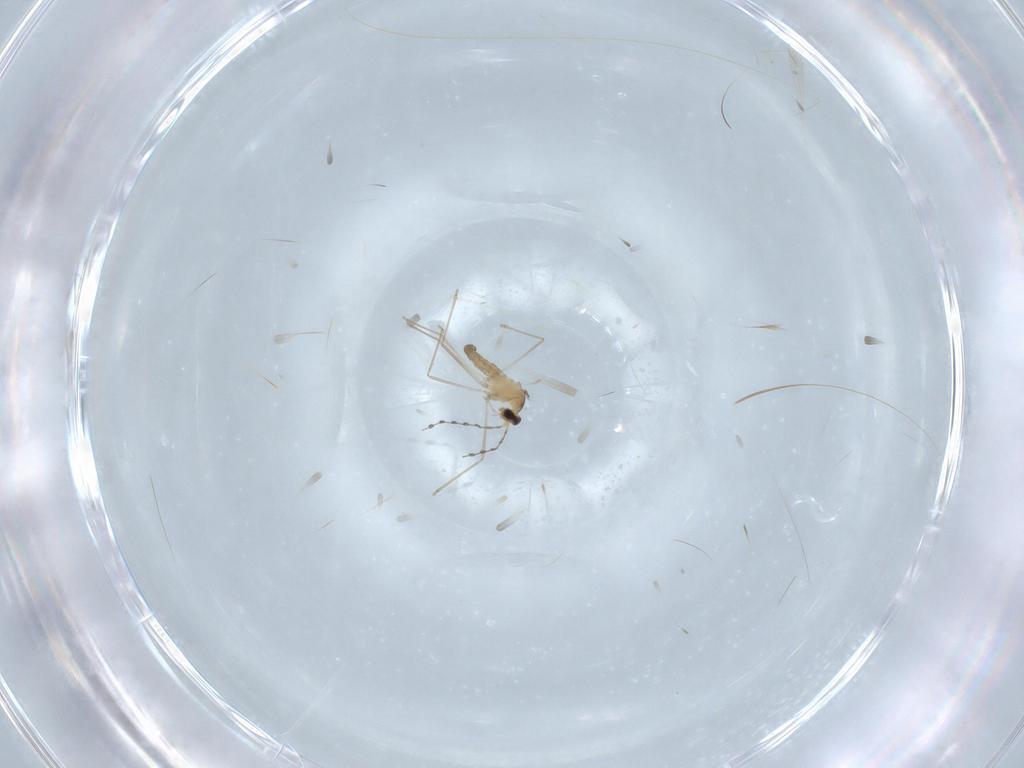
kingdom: Animalia
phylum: Arthropoda
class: Insecta
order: Diptera
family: Cecidomyiidae
